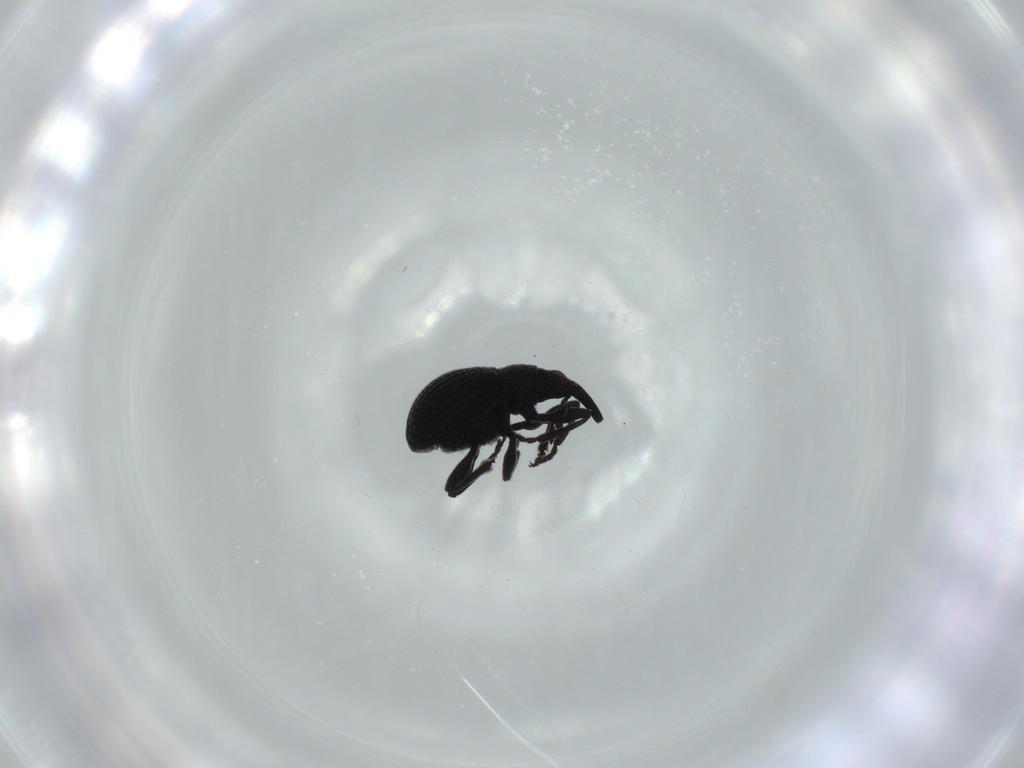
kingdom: Animalia
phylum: Arthropoda
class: Insecta
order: Coleoptera
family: Brentidae
